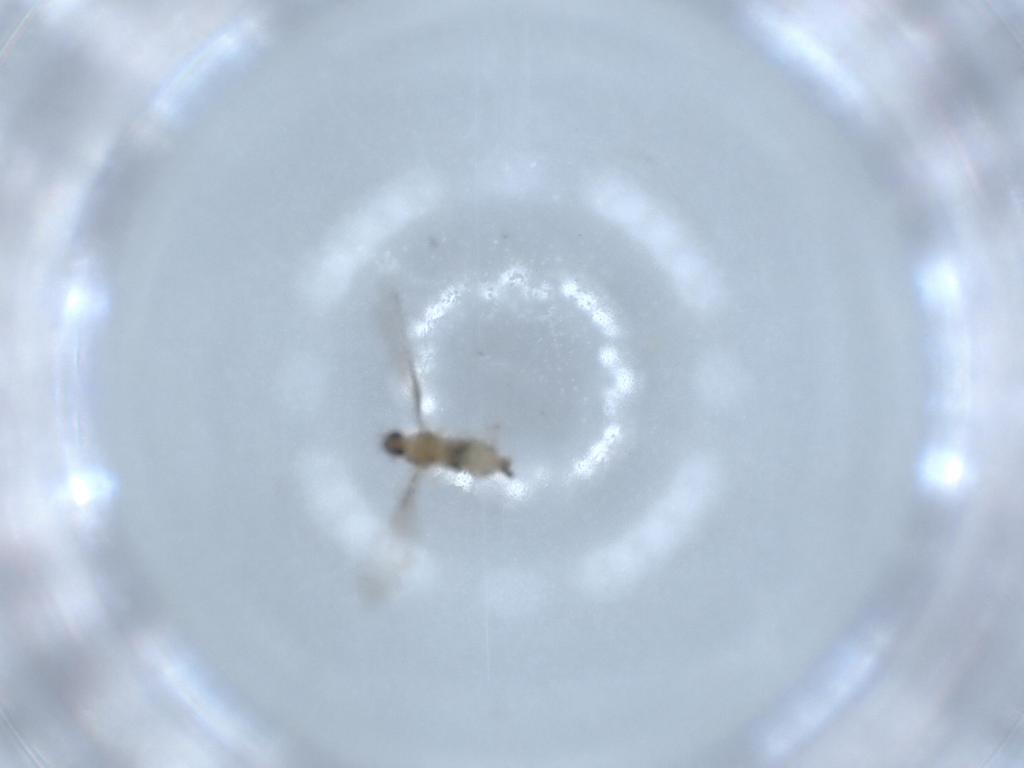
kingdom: Animalia
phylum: Arthropoda
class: Insecta
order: Diptera
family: Cecidomyiidae
